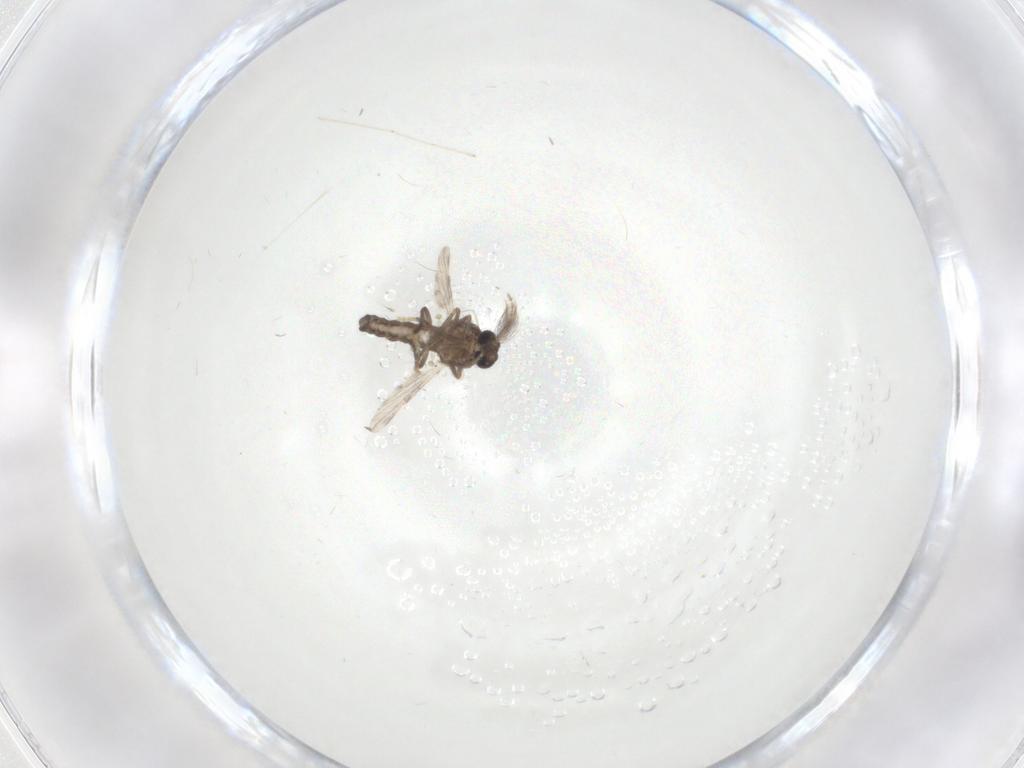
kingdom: Animalia
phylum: Arthropoda
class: Insecta
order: Diptera
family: Ceratopogonidae
